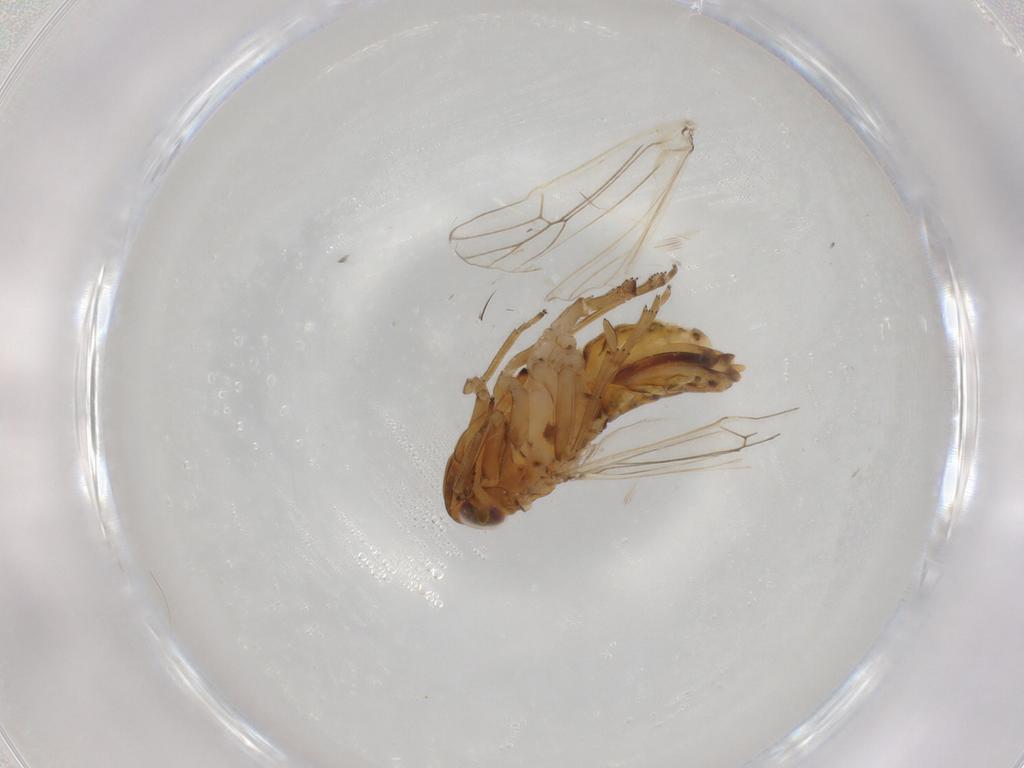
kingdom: Animalia
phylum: Arthropoda
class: Insecta
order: Hemiptera
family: Delphacidae
